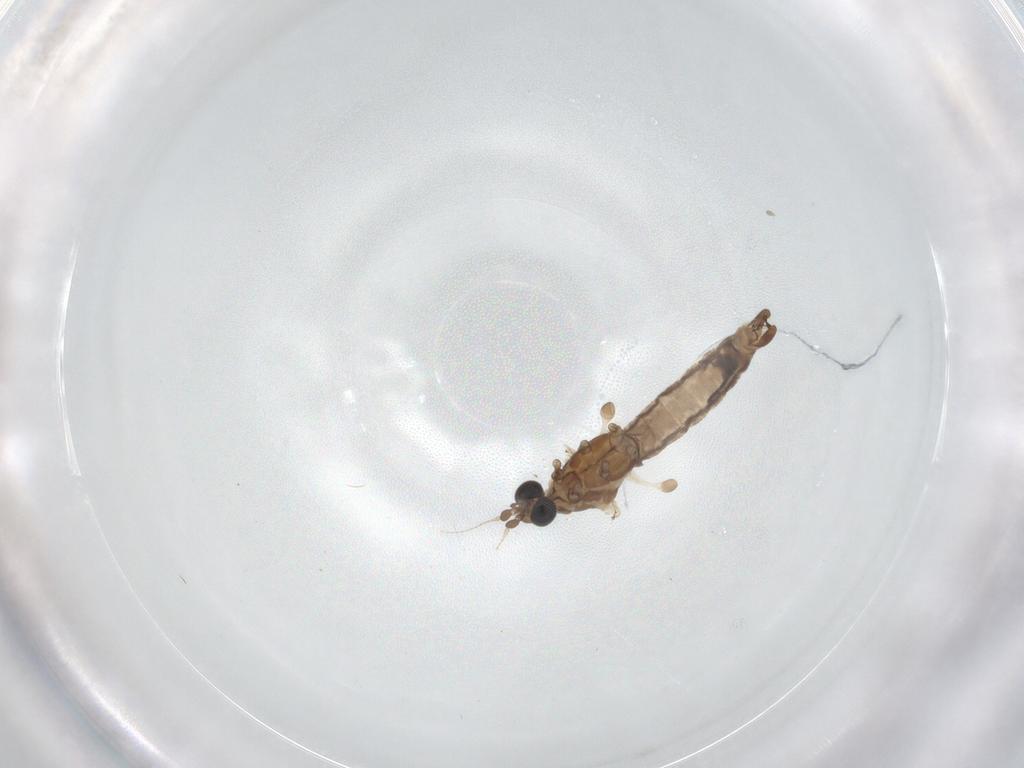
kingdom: Animalia
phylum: Arthropoda
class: Insecta
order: Diptera
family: Limoniidae
